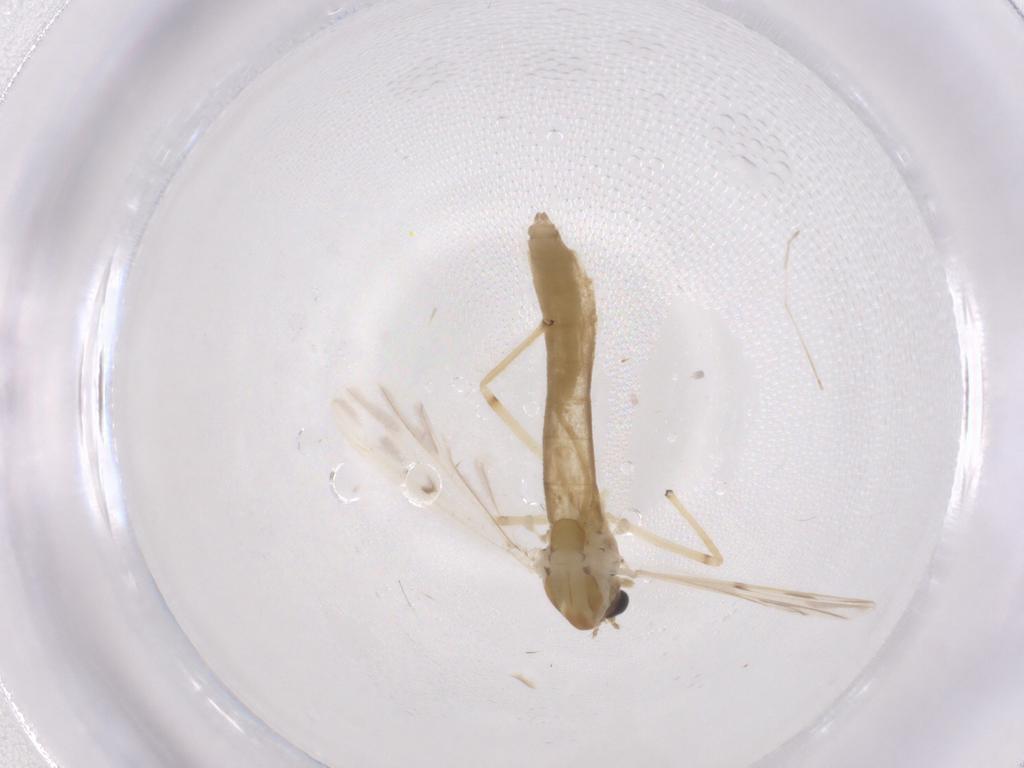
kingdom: Animalia
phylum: Arthropoda
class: Insecta
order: Diptera
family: Chironomidae
